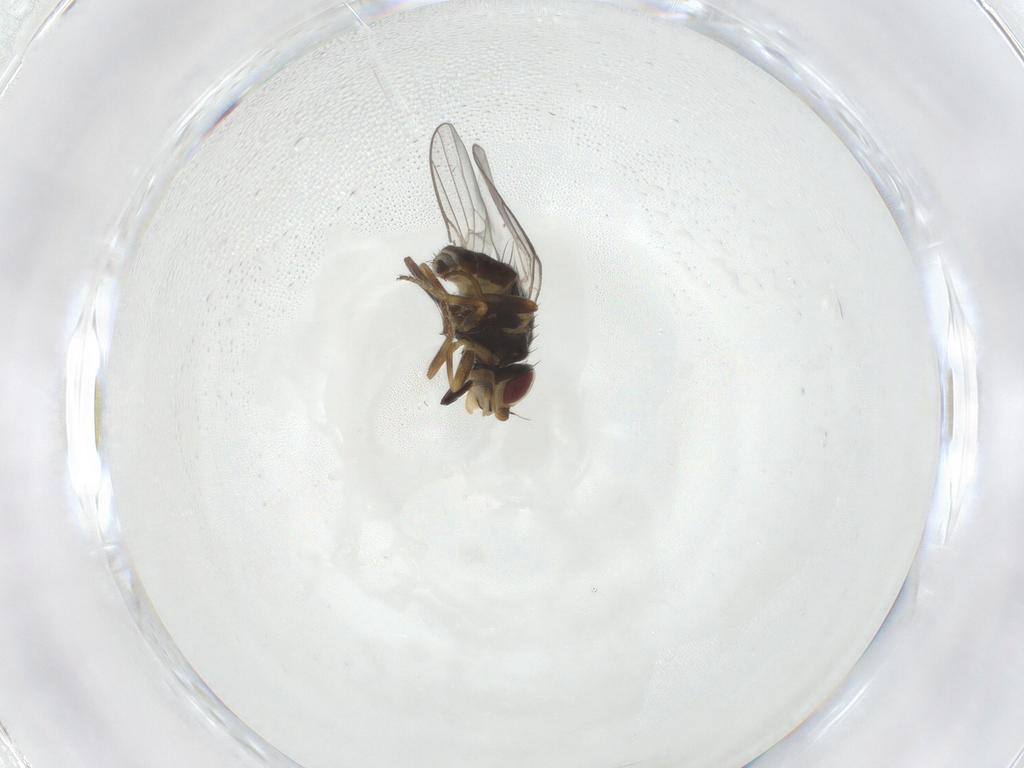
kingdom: Animalia
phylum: Arthropoda
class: Insecta
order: Diptera
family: Chloropidae
